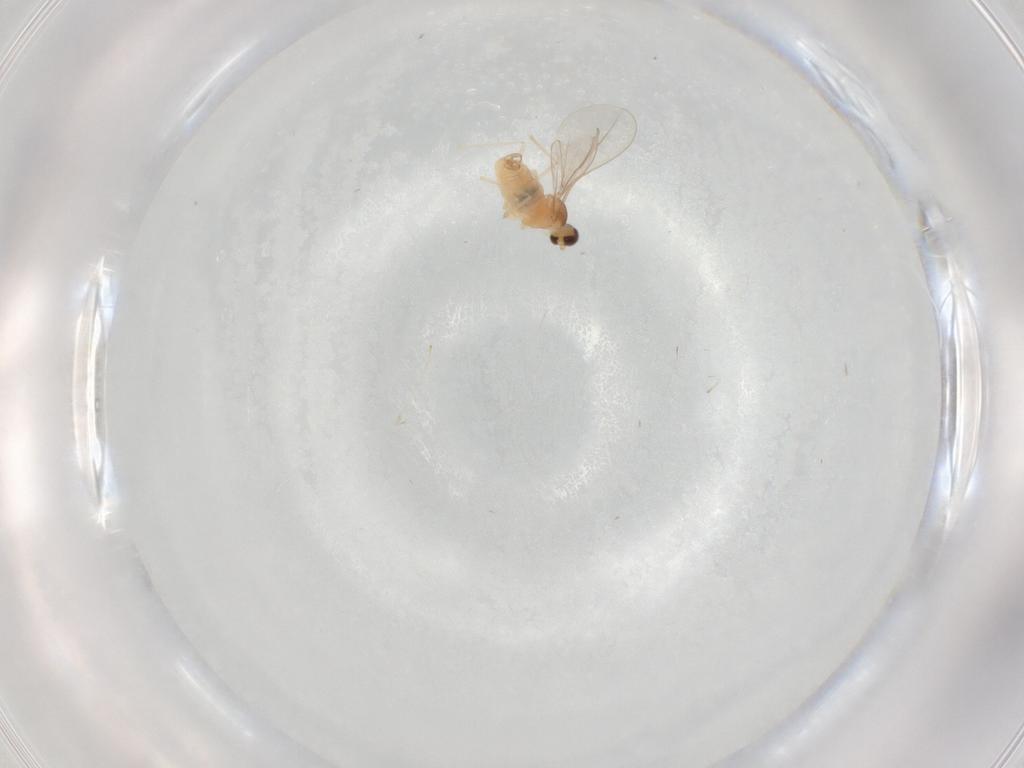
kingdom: Animalia
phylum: Arthropoda
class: Insecta
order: Diptera
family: Cecidomyiidae
